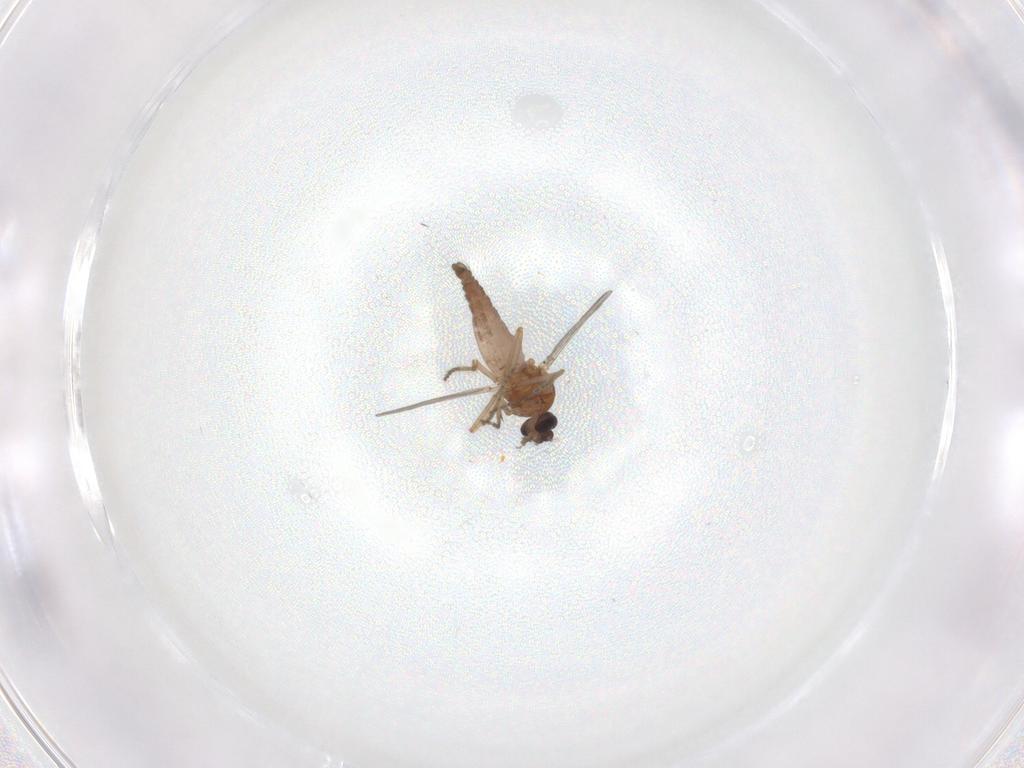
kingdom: Animalia
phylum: Arthropoda
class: Insecta
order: Diptera
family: Ceratopogonidae
